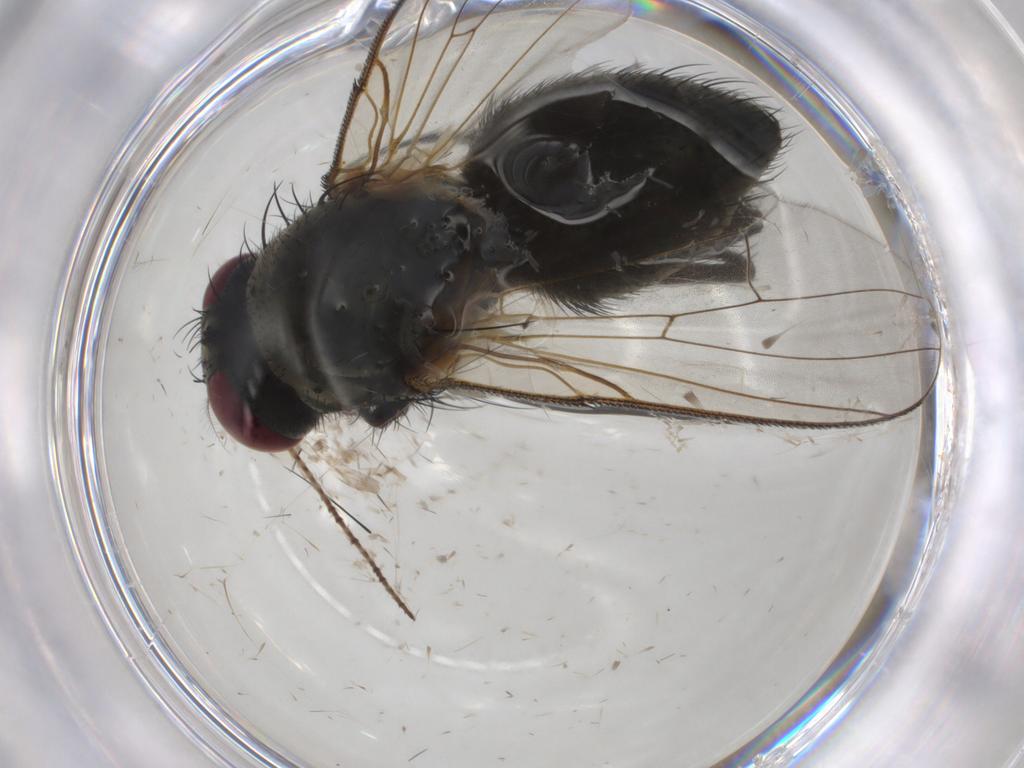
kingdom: Animalia
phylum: Arthropoda
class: Insecta
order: Diptera
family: Muscidae
